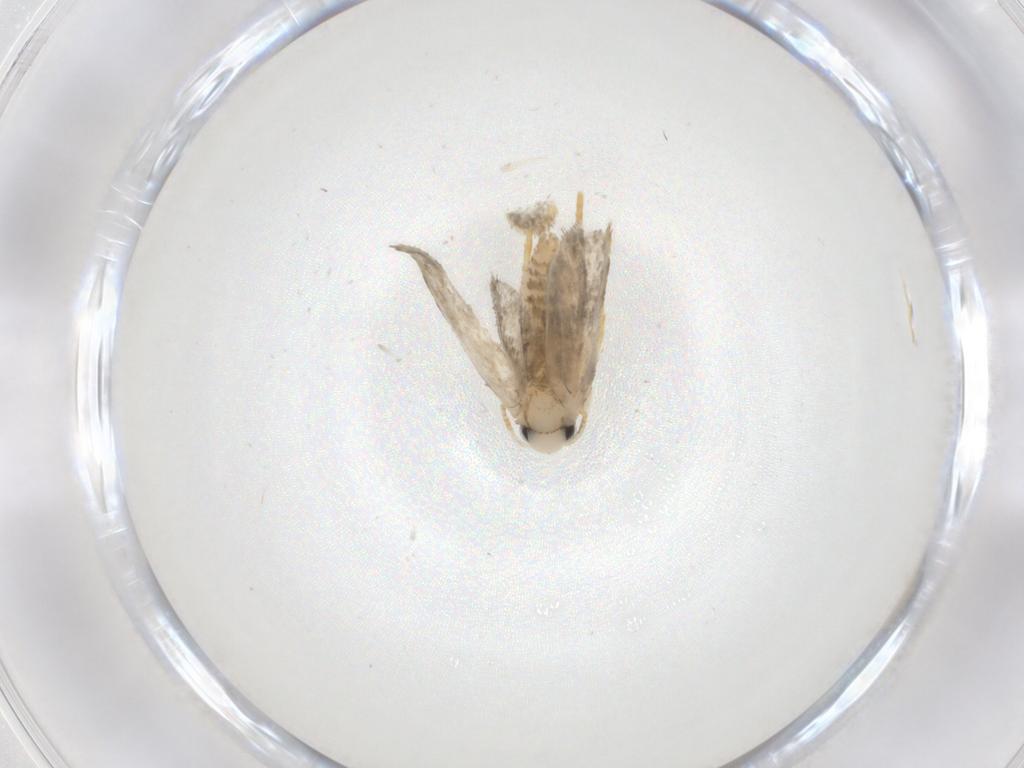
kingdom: Animalia
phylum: Arthropoda
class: Insecta
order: Lepidoptera
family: Psychidae
